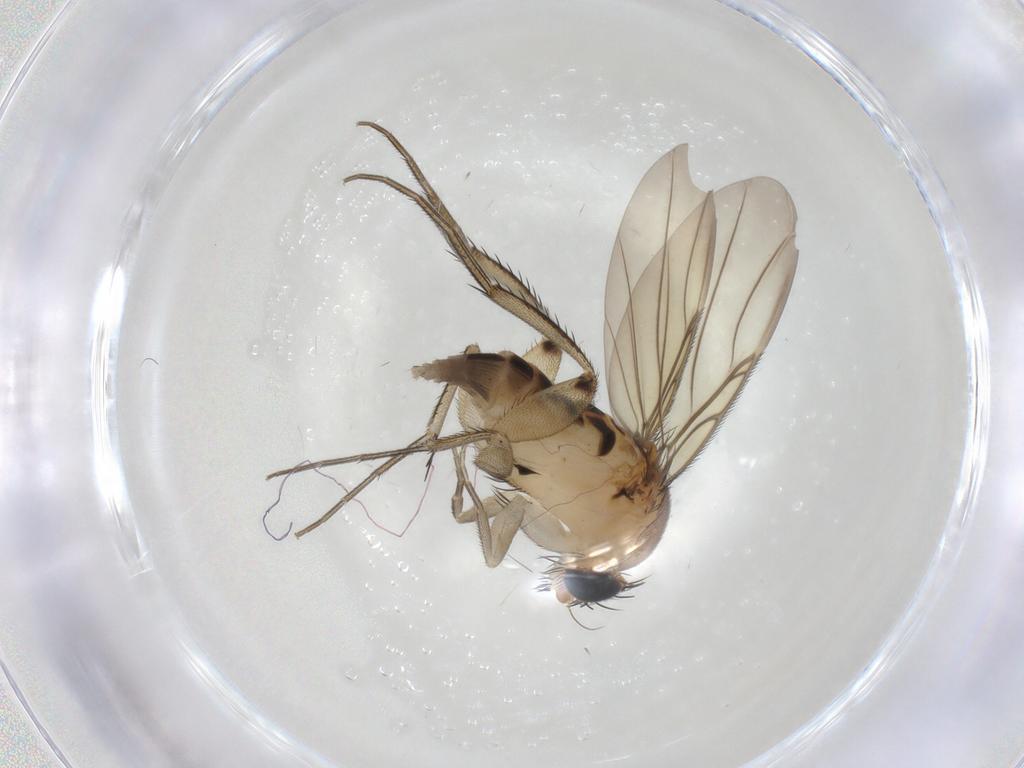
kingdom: Animalia
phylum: Arthropoda
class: Insecta
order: Diptera
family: Phoridae
